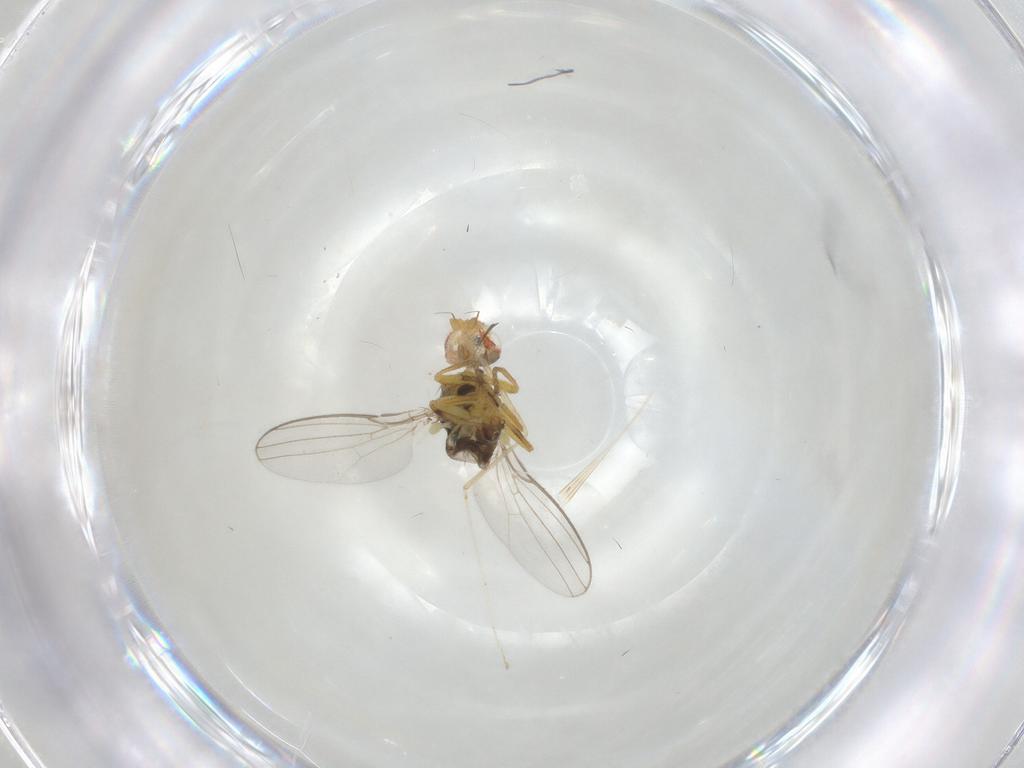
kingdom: Animalia
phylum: Arthropoda
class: Insecta
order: Diptera
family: Chloropidae
